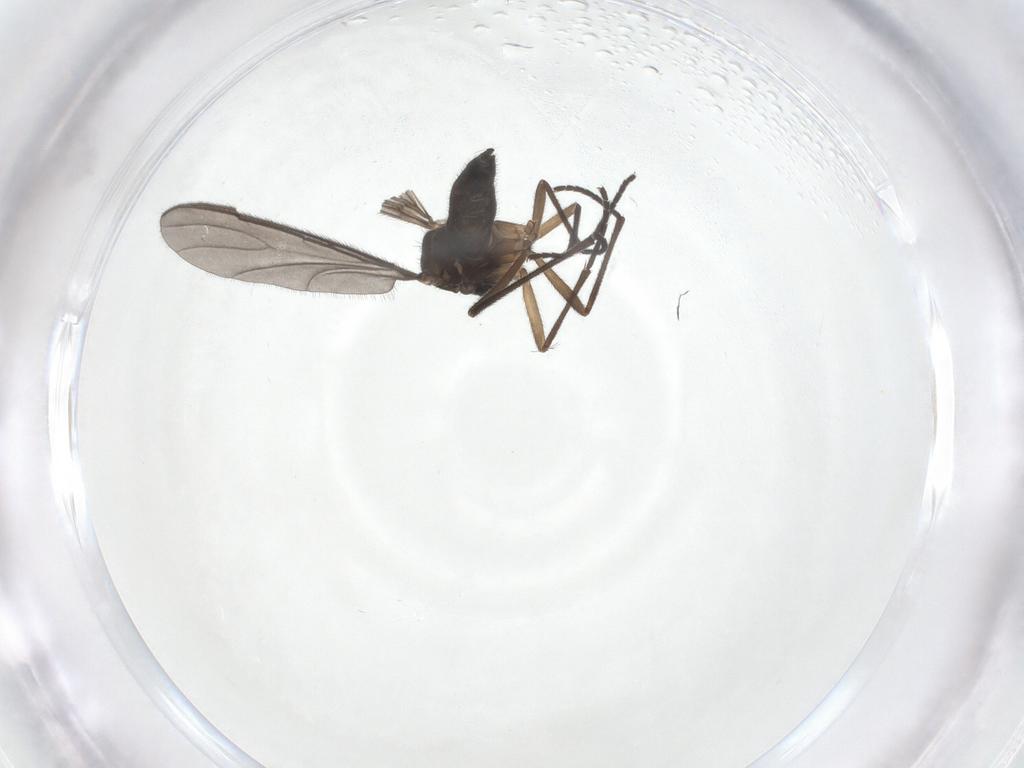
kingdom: Animalia
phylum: Arthropoda
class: Insecta
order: Diptera
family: Sciaridae
